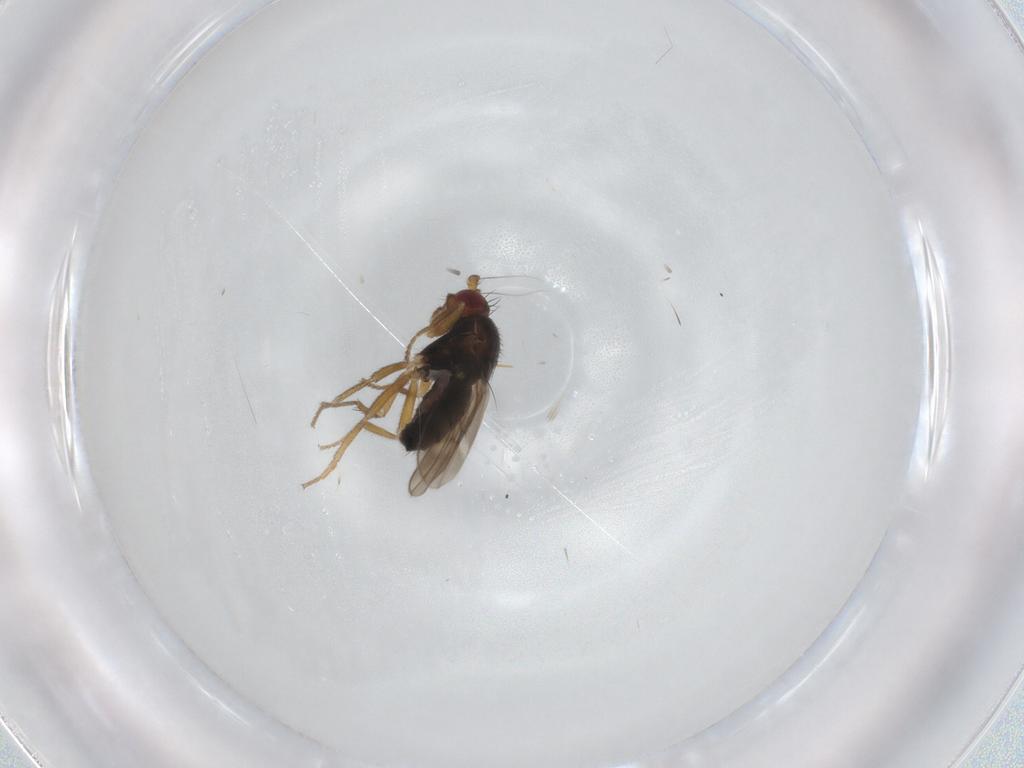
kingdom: Animalia
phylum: Arthropoda
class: Insecta
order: Diptera
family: Sphaeroceridae
